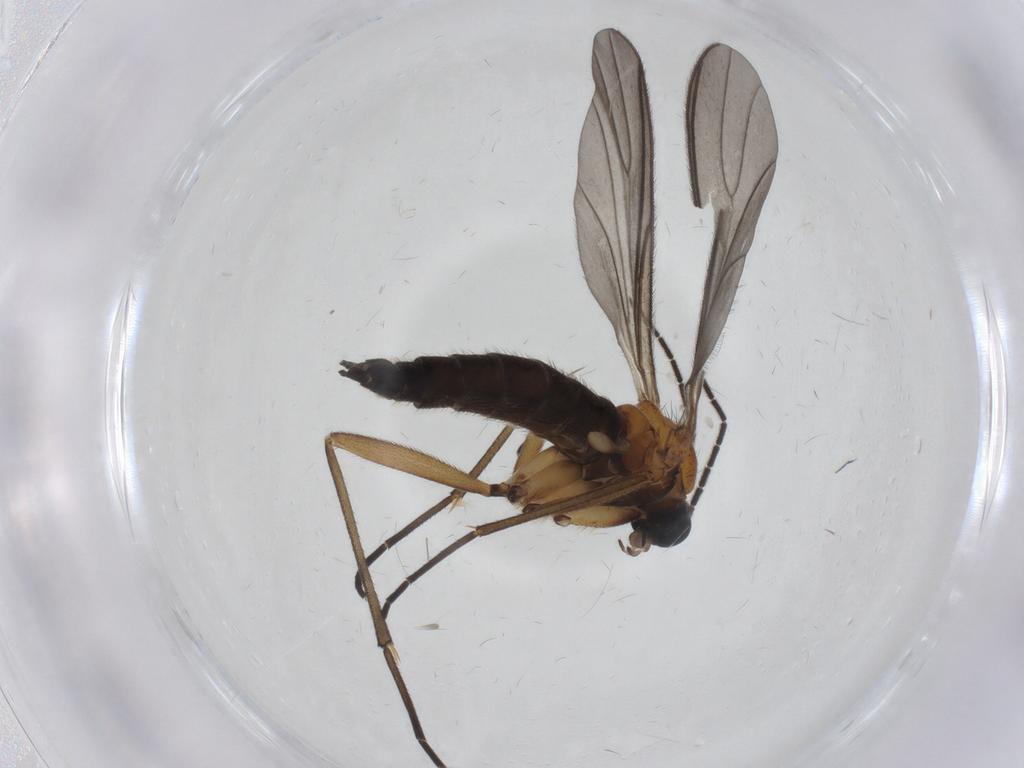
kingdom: Animalia
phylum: Arthropoda
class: Insecta
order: Diptera
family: Sciaridae
